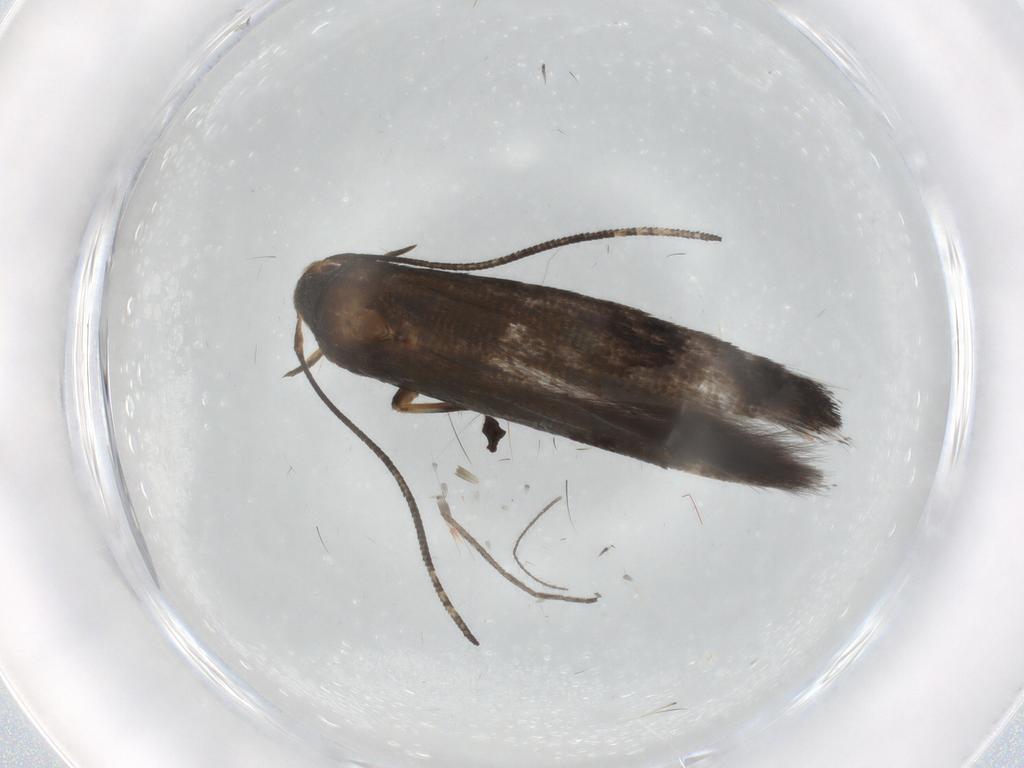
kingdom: Animalia
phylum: Arthropoda
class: Insecta
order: Lepidoptera
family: Momphidae
